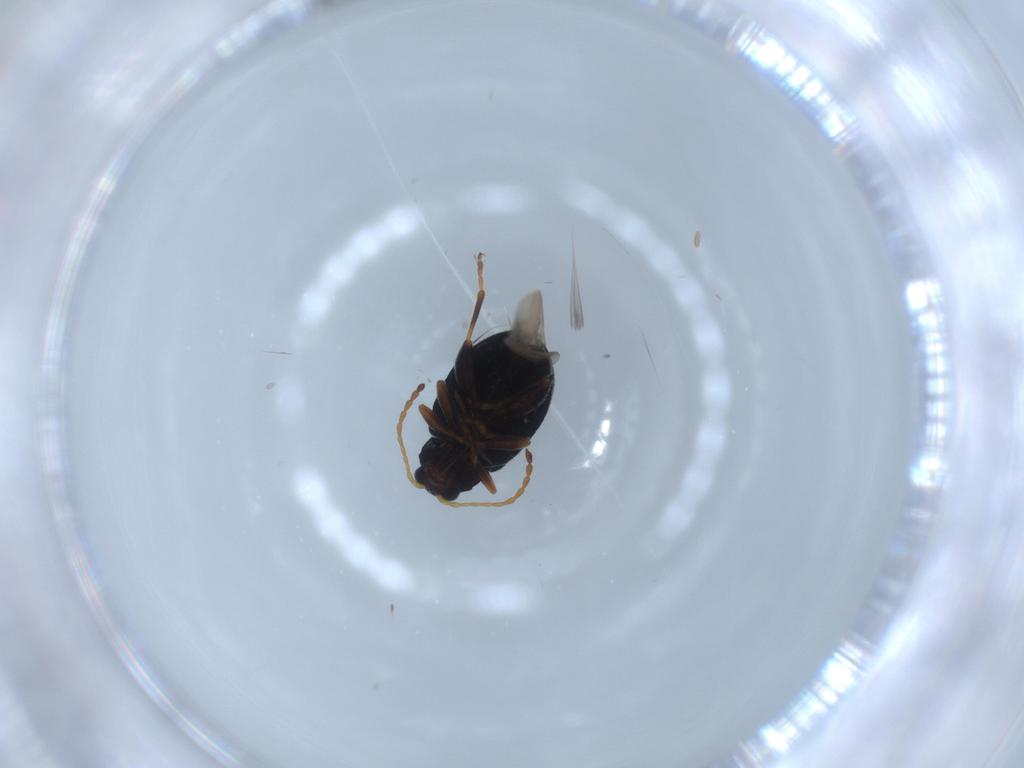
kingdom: Animalia
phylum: Arthropoda
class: Insecta
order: Coleoptera
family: Chrysomelidae
